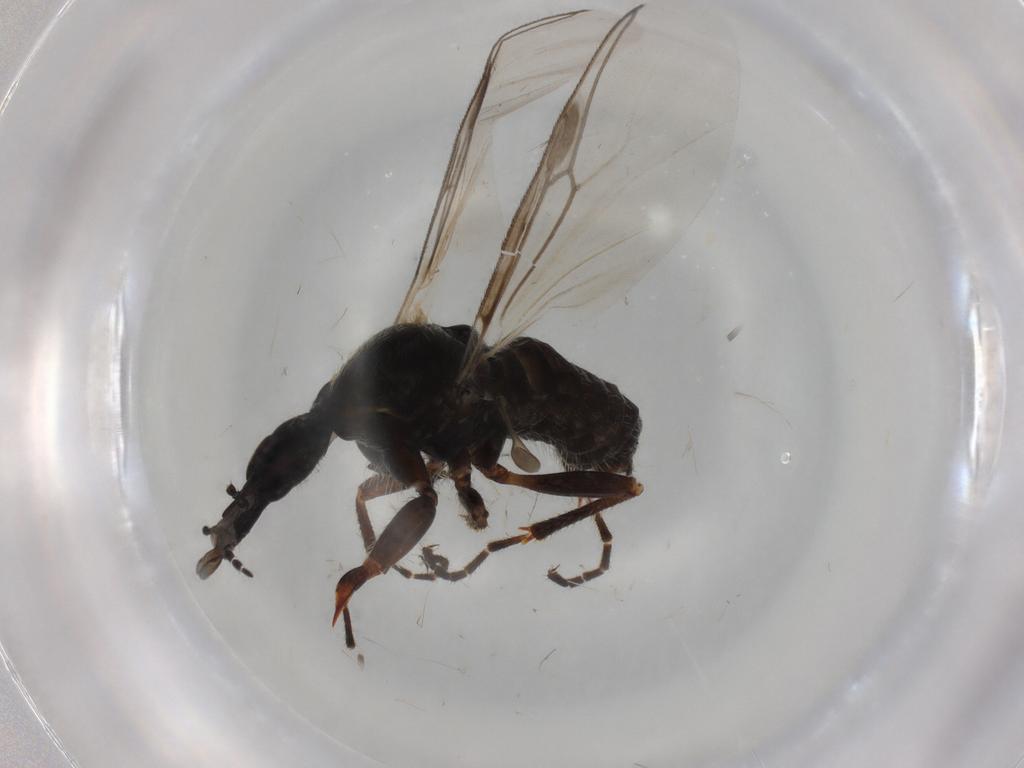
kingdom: Animalia
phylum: Arthropoda
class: Insecta
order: Diptera
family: Bibionidae
